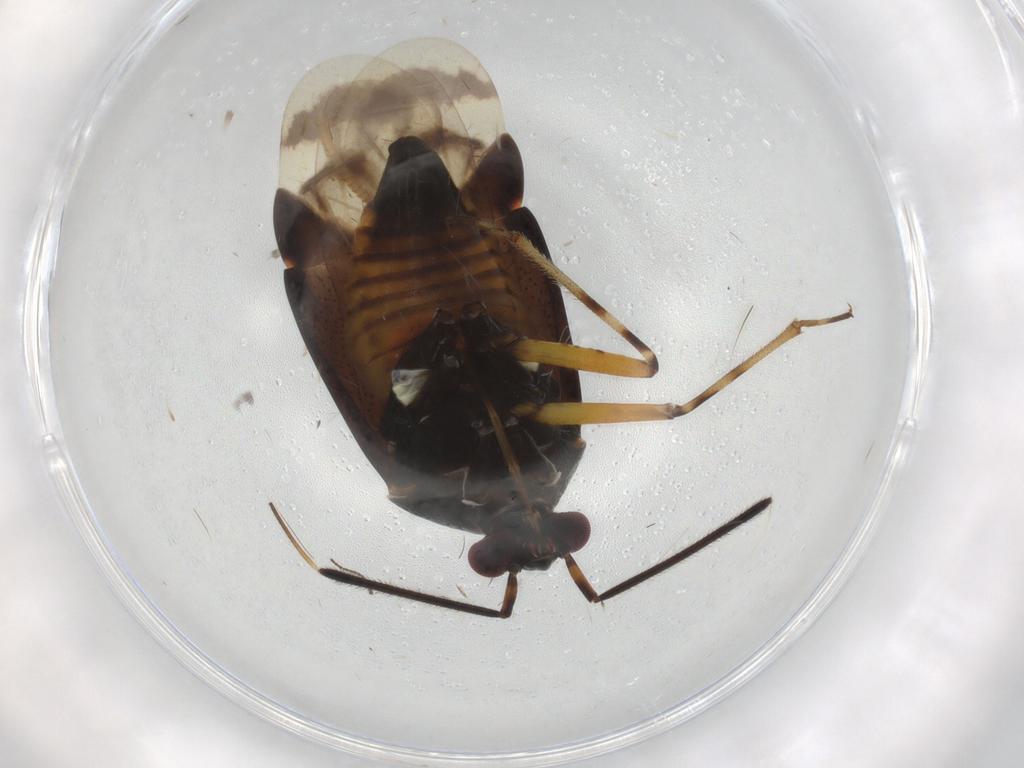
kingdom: Animalia
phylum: Arthropoda
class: Insecta
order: Hemiptera
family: Miridae
